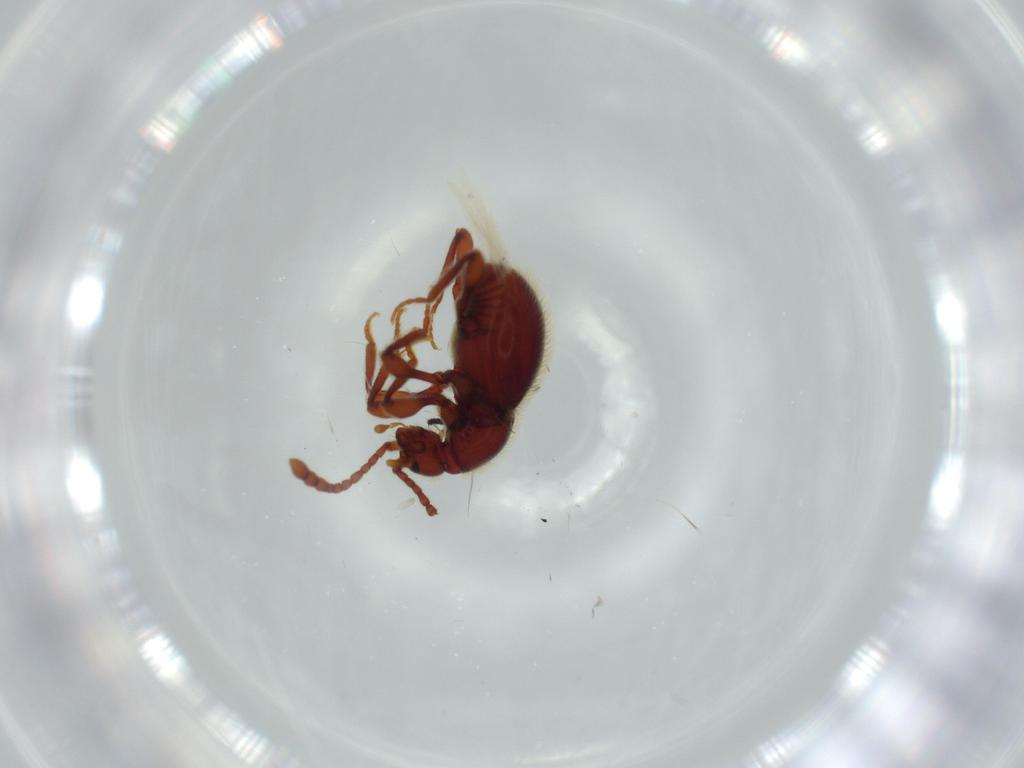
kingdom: Animalia
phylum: Arthropoda
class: Insecta
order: Coleoptera
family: Staphylinidae
